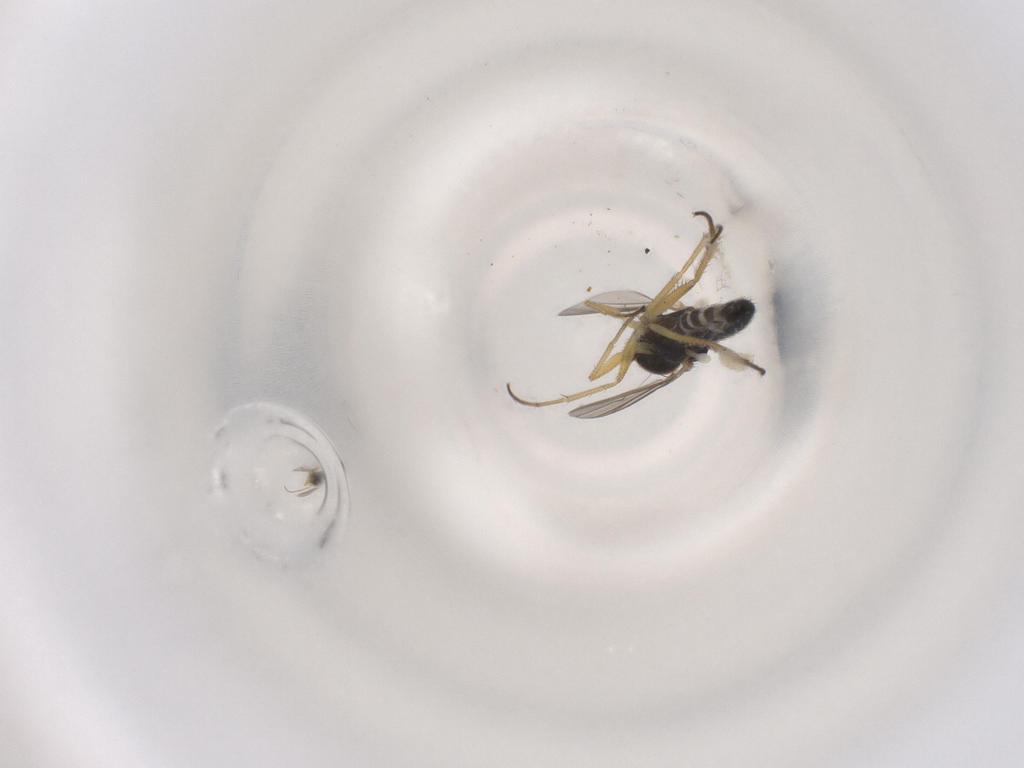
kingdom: Animalia
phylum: Arthropoda
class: Insecta
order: Diptera
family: Dolichopodidae
